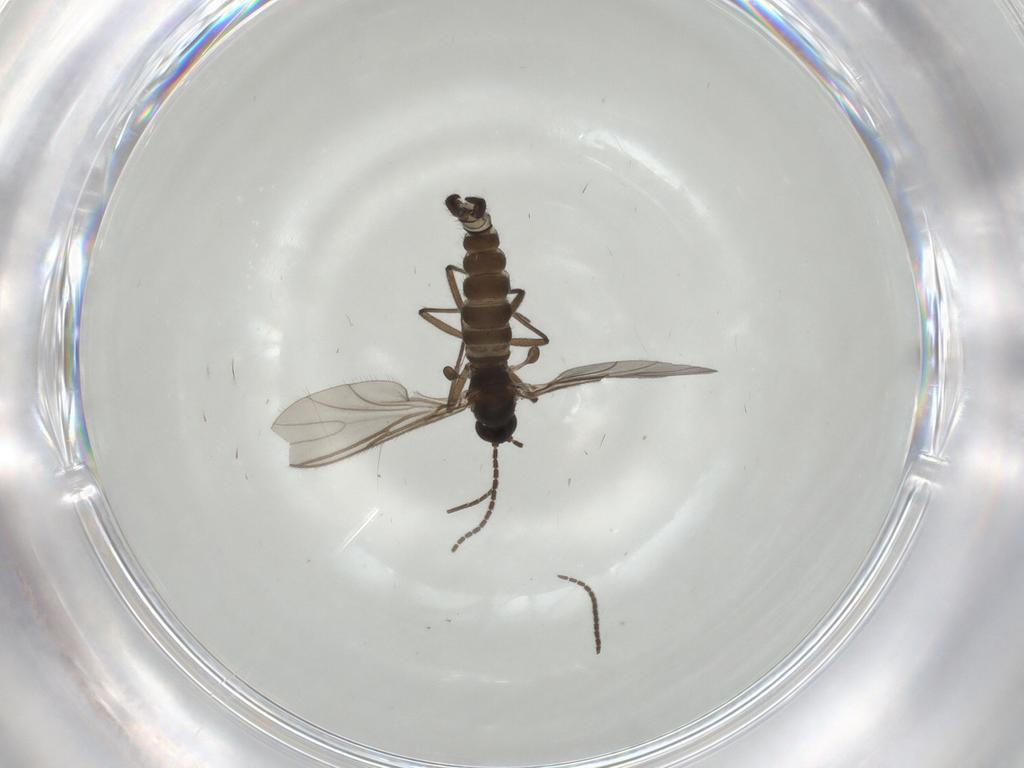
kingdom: Animalia
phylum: Arthropoda
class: Insecta
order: Diptera
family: Sciaridae
